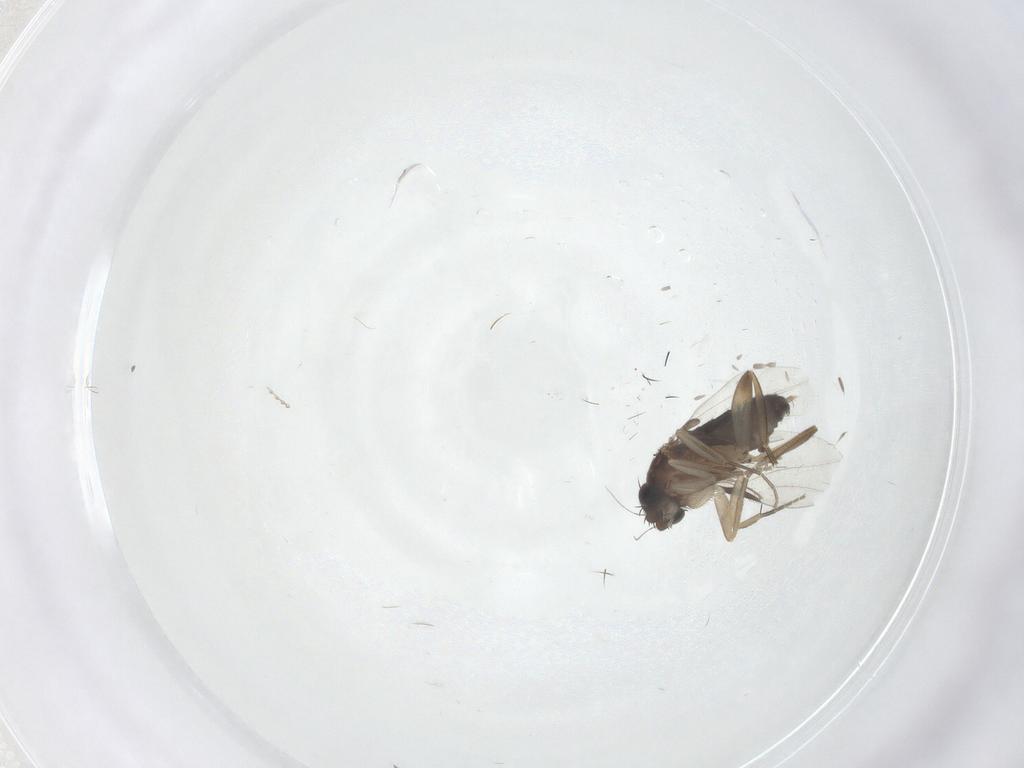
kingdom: Animalia
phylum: Arthropoda
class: Insecta
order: Diptera
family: Phoridae
